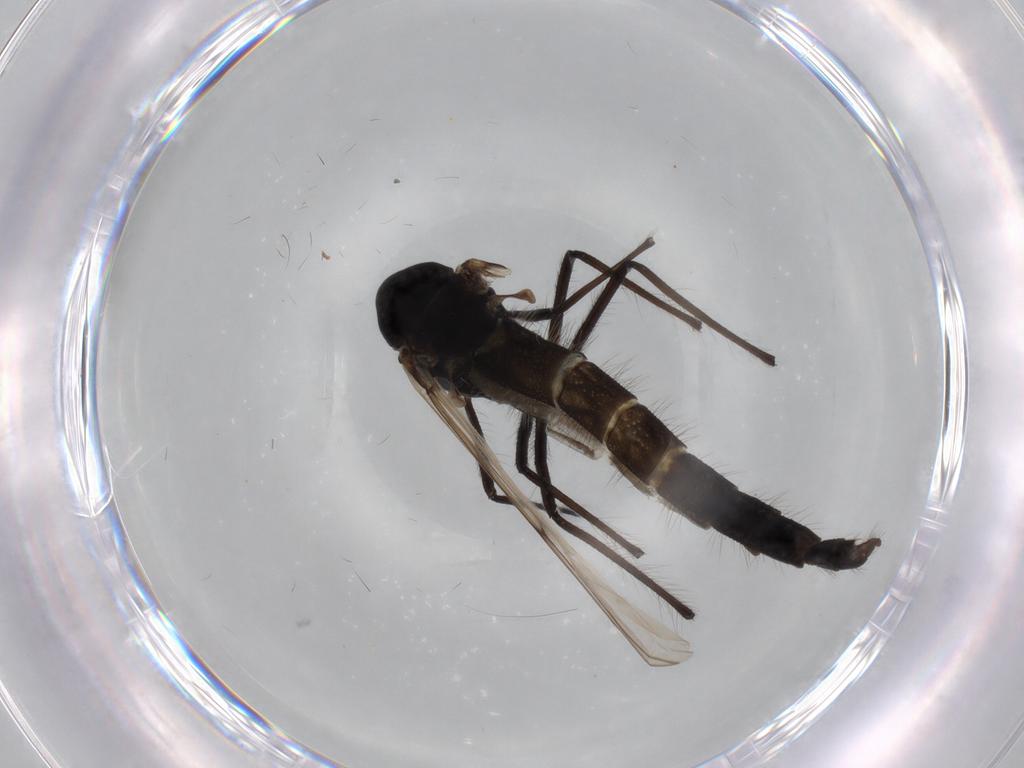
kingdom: Animalia
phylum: Arthropoda
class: Insecta
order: Diptera
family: Chironomidae
